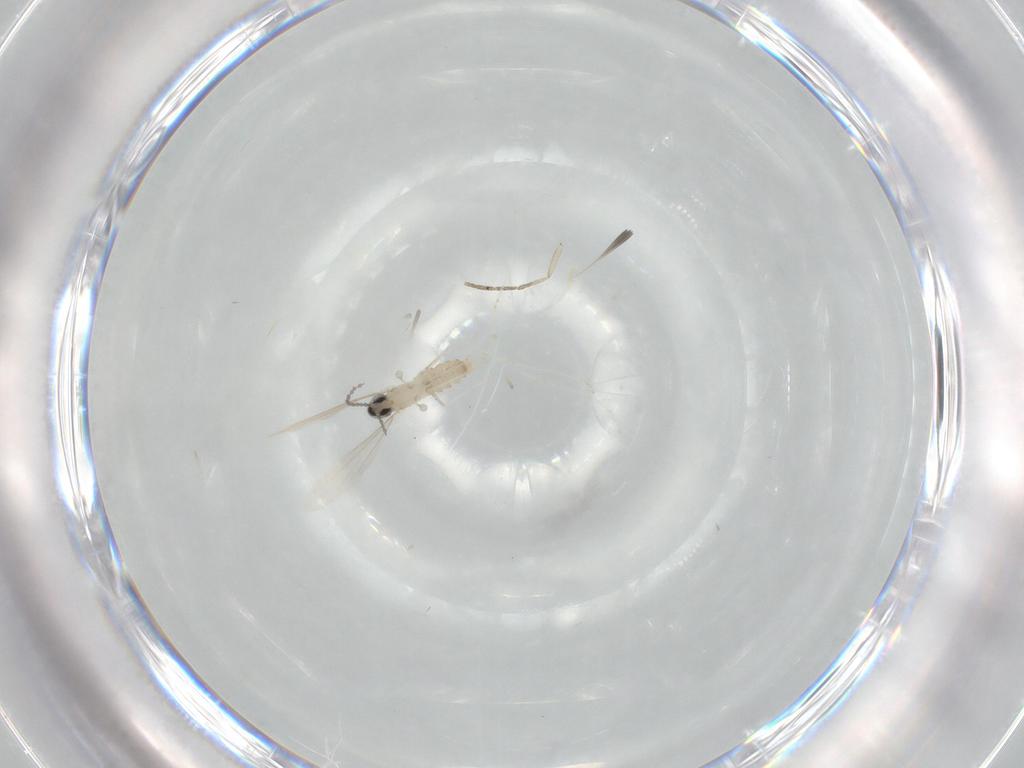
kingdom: Animalia
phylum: Arthropoda
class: Insecta
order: Diptera
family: Cecidomyiidae
